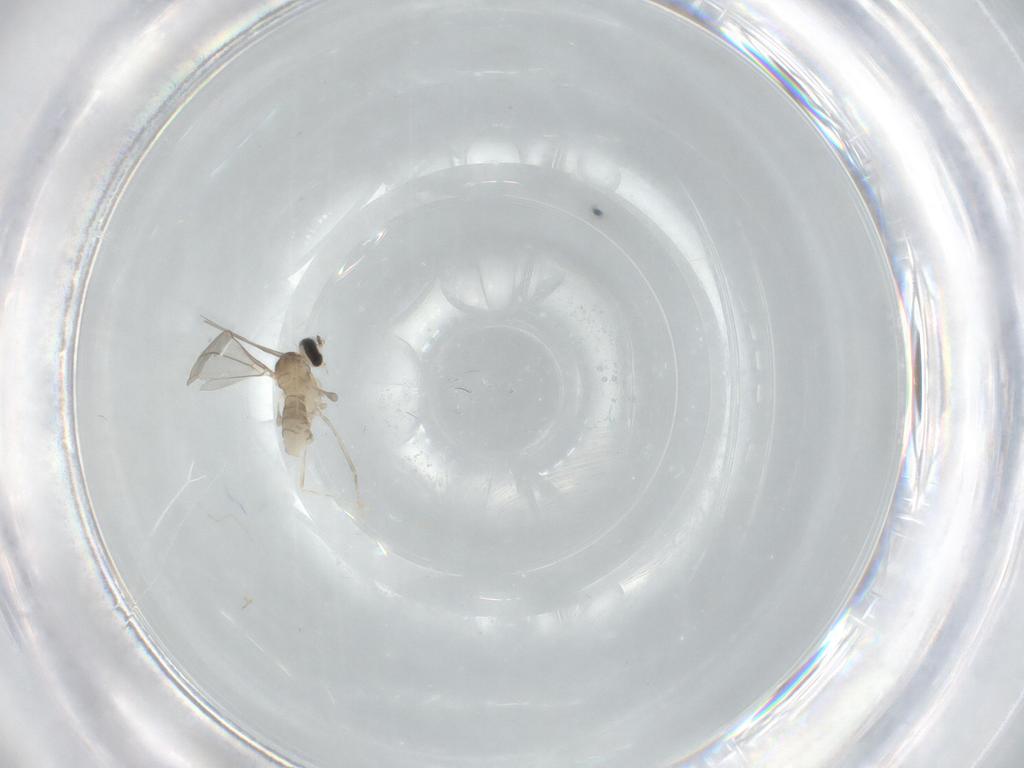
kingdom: Animalia
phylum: Arthropoda
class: Insecta
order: Diptera
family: Cecidomyiidae
